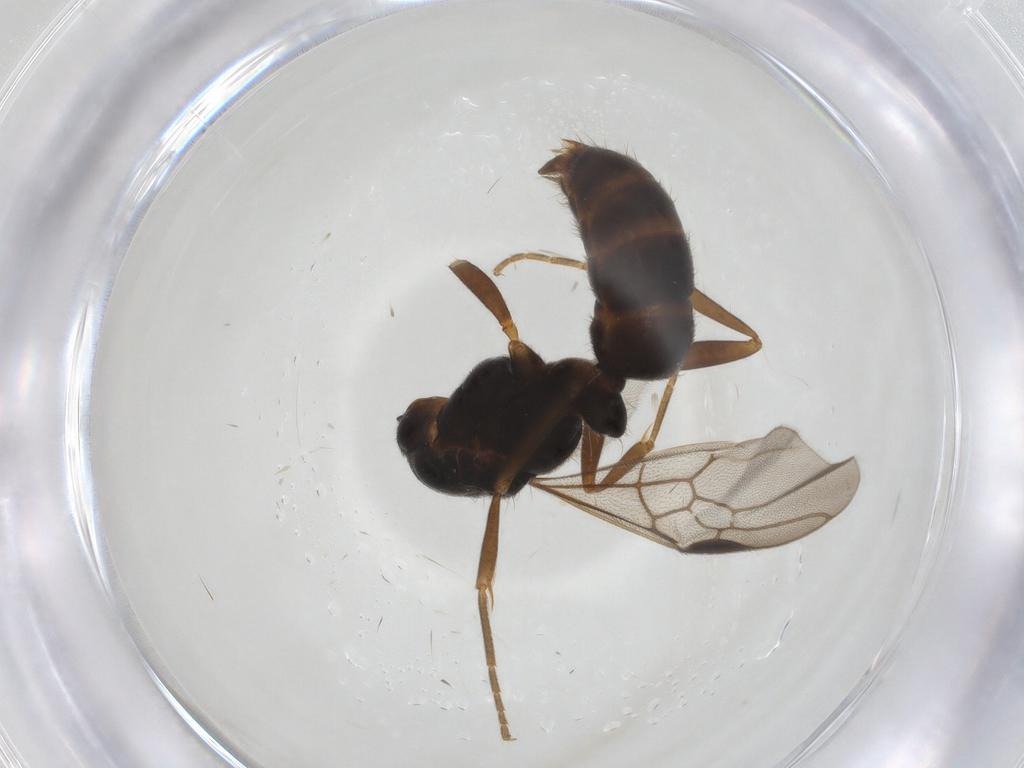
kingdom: Animalia
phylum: Arthropoda
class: Insecta
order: Hymenoptera
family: Formicidae
